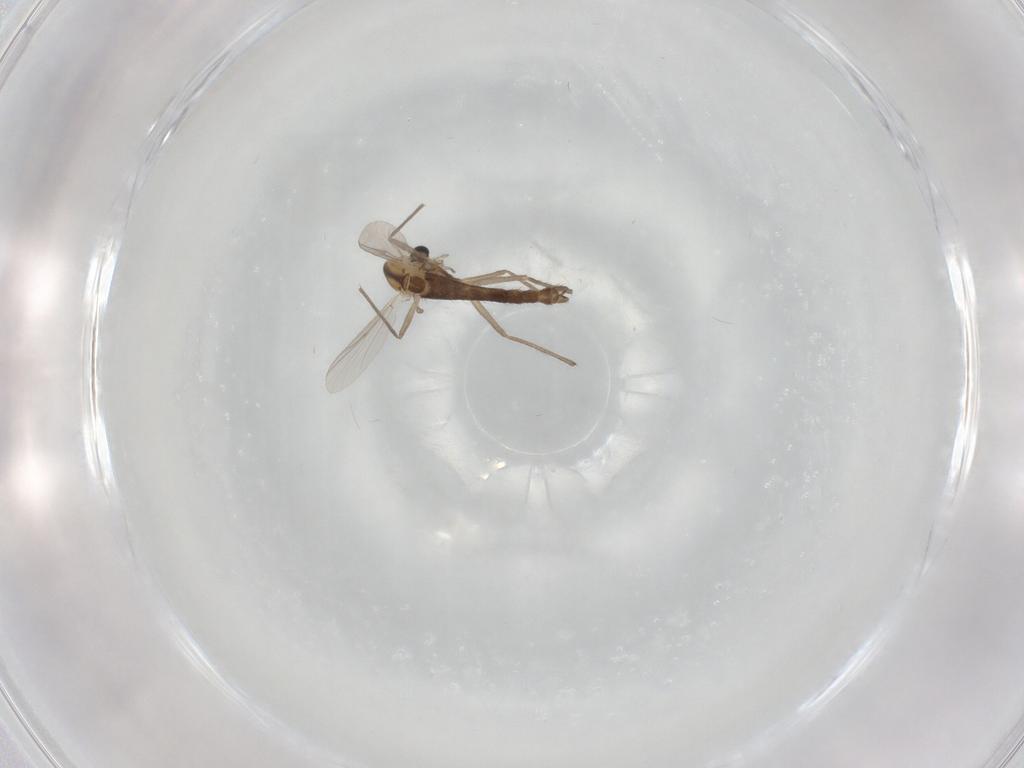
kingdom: Animalia
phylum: Arthropoda
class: Insecta
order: Diptera
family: Chironomidae
